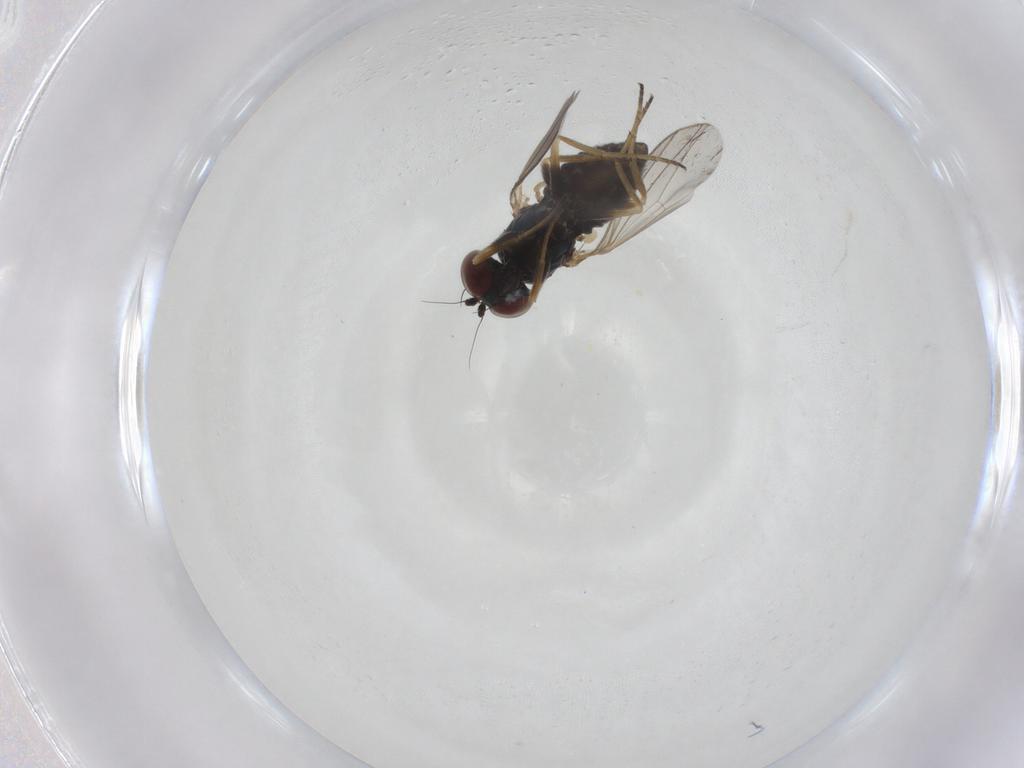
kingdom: Animalia
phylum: Arthropoda
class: Insecta
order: Diptera
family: Dolichopodidae
